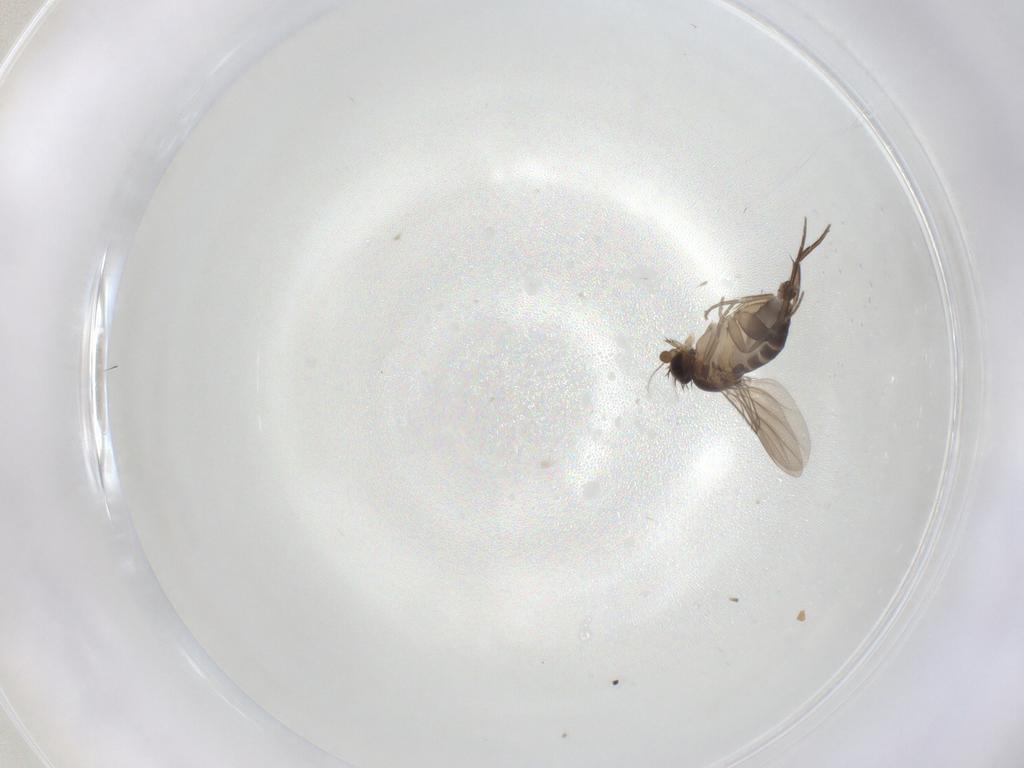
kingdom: Animalia
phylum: Arthropoda
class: Insecta
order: Diptera
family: Phoridae
